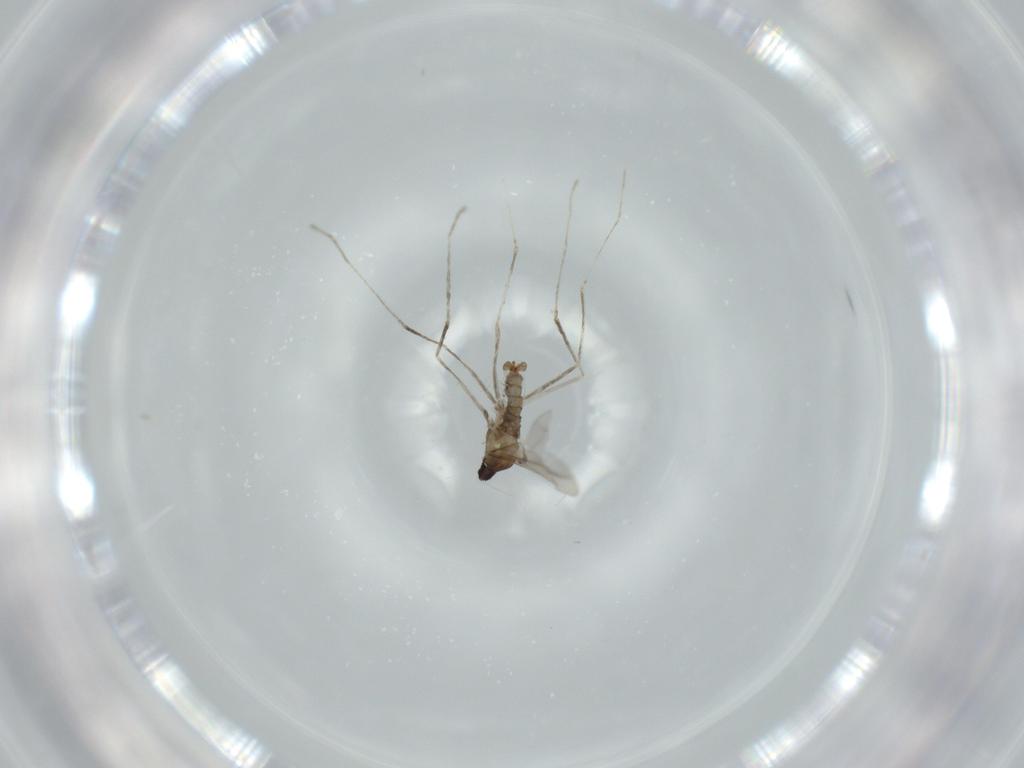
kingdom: Animalia
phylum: Arthropoda
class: Insecta
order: Diptera
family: Cecidomyiidae
